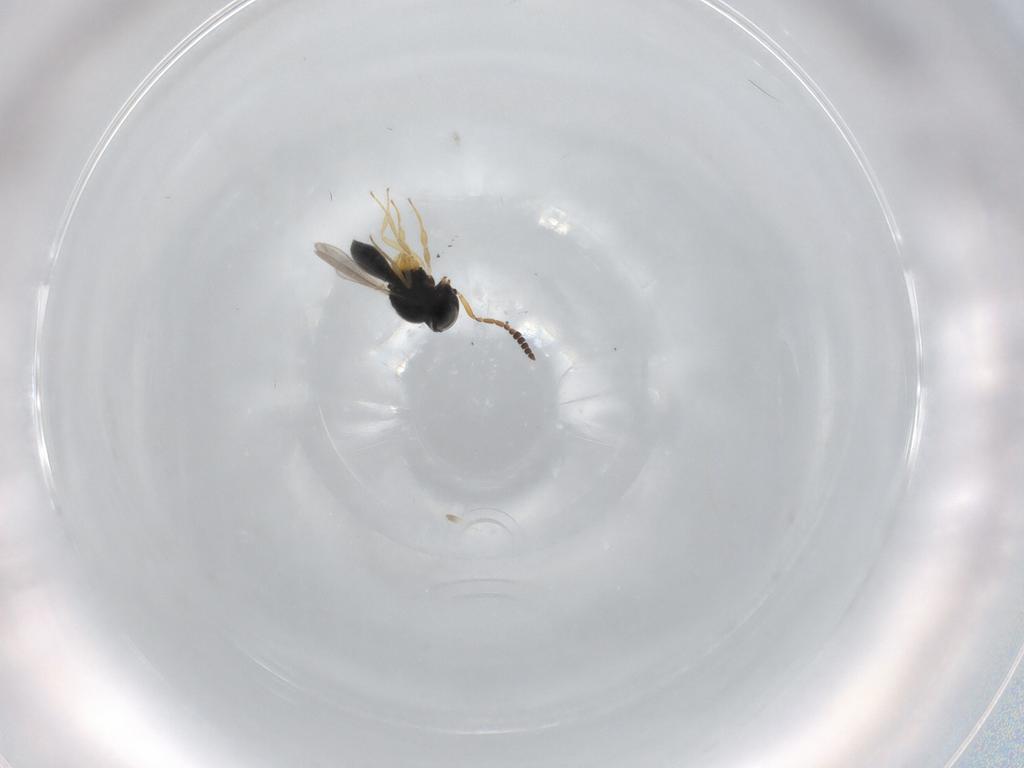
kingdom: Animalia
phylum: Arthropoda
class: Insecta
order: Hymenoptera
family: Scelionidae
